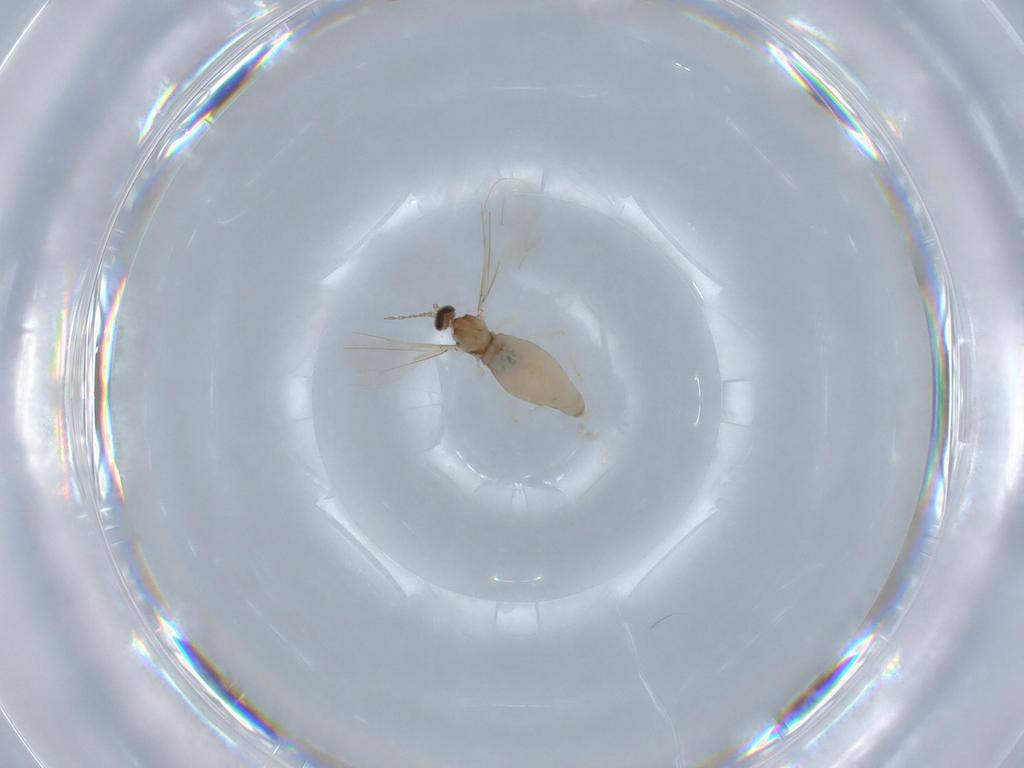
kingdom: Animalia
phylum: Arthropoda
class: Insecta
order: Diptera
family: Cecidomyiidae
